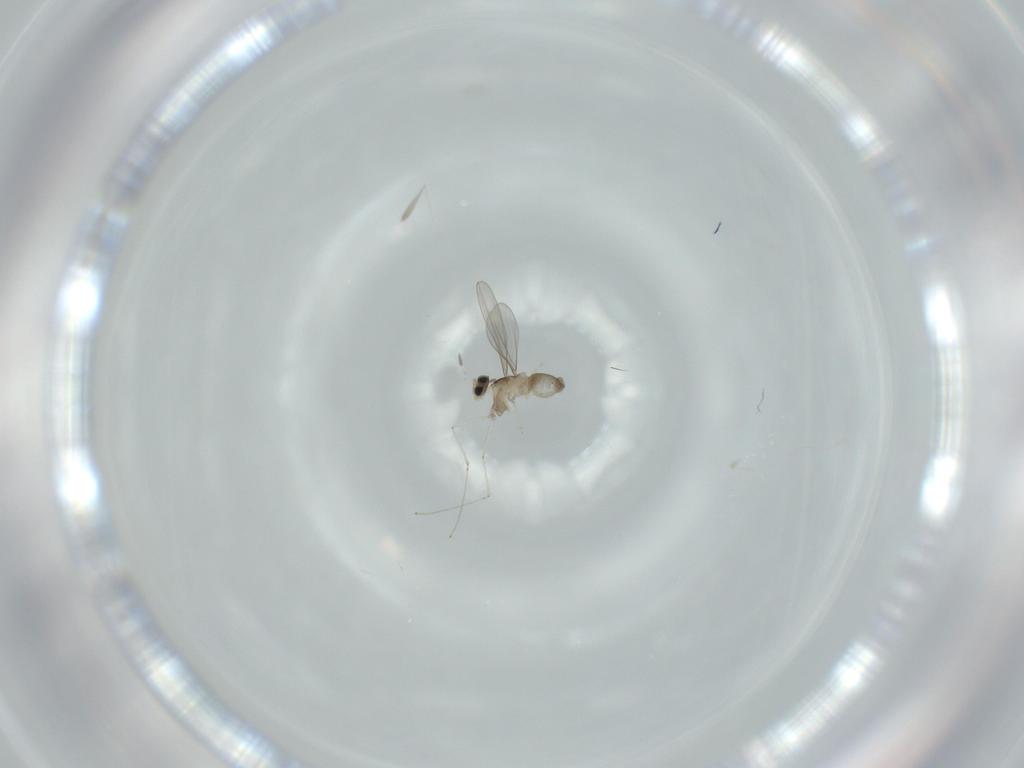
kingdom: Animalia
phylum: Arthropoda
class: Insecta
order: Diptera
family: Cecidomyiidae
